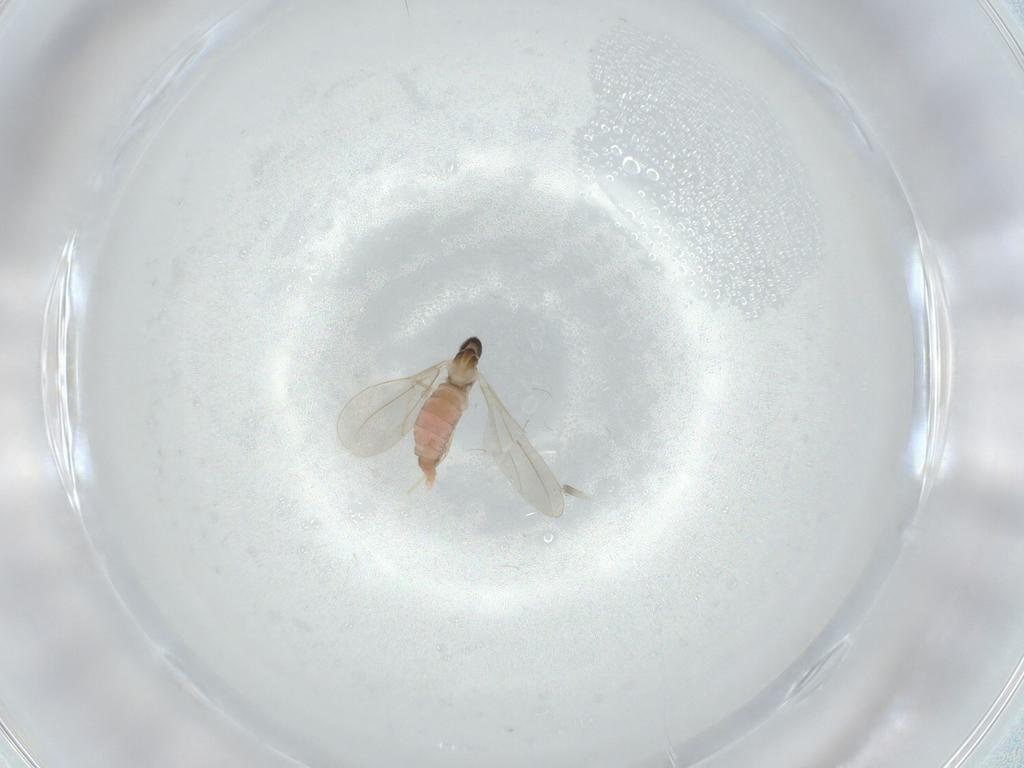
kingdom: Animalia
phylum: Arthropoda
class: Insecta
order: Diptera
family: Cecidomyiidae
